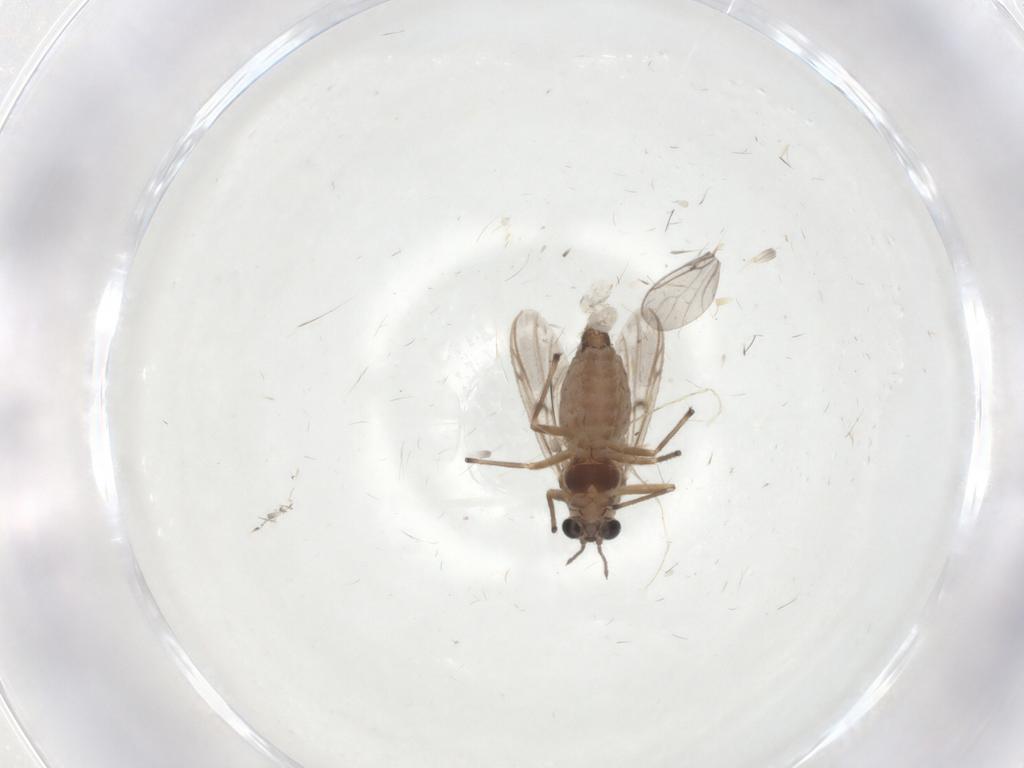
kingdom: Animalia
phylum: Arthropoda
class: Insecta
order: Diptera
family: Chironomidae
